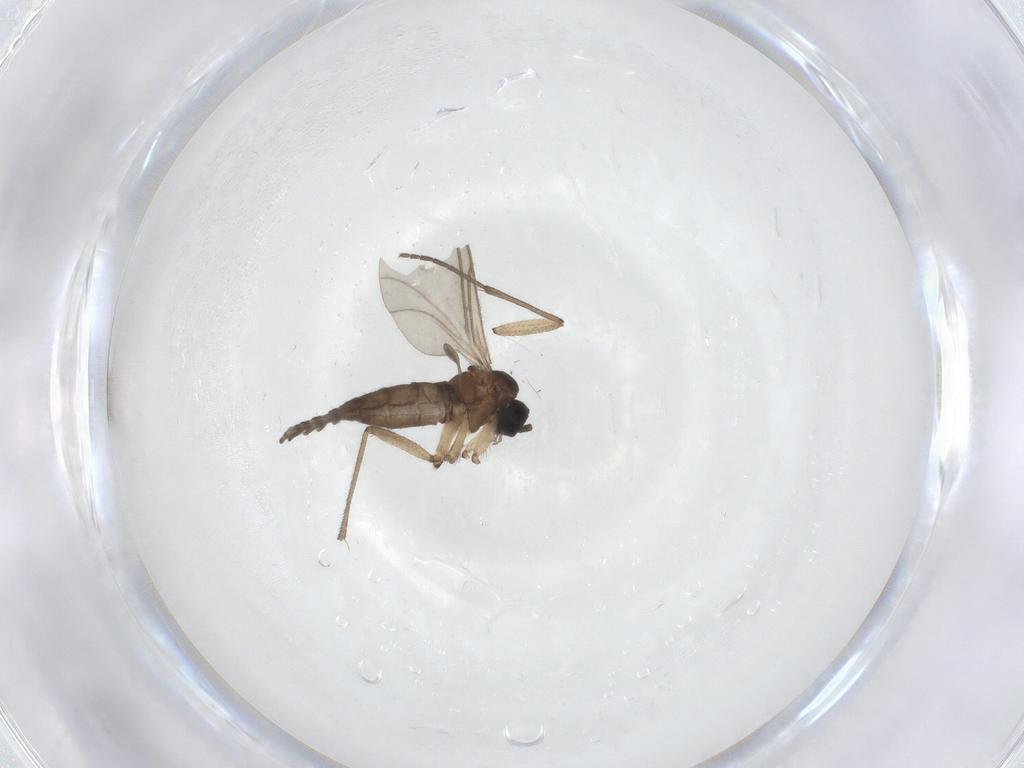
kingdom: Animalia
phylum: Arthropoda
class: Insecta
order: Diptera
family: Sciaridae
